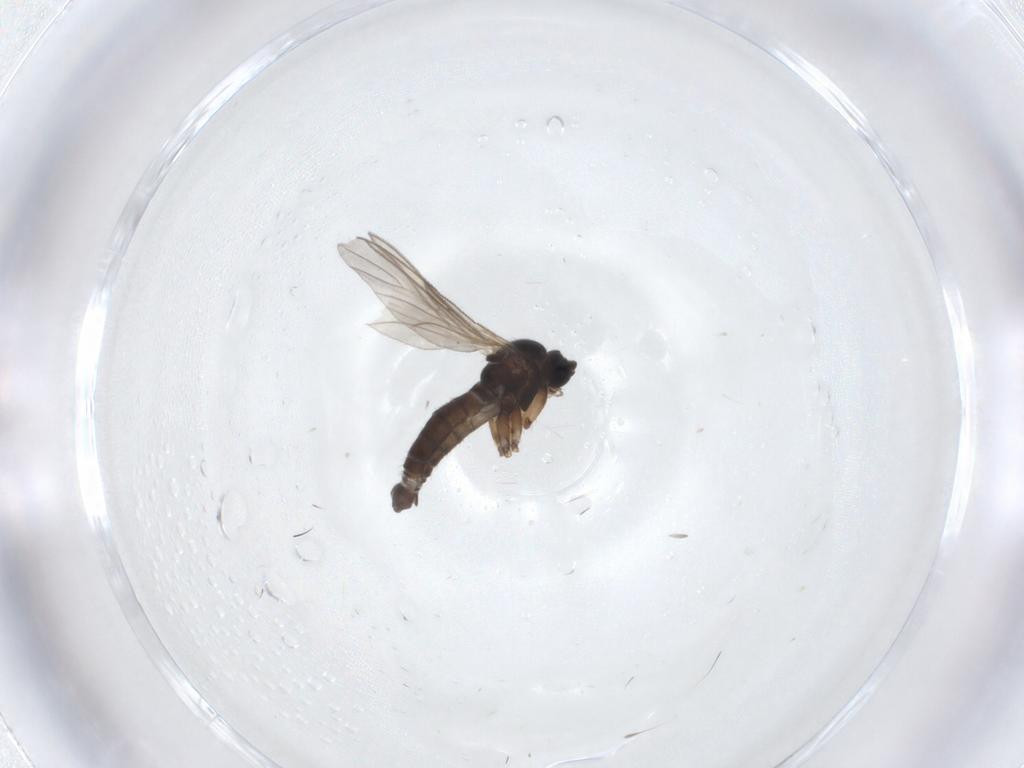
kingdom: Animalia
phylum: Arthropoda
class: Insecta
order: Diptera
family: Sciaridae
